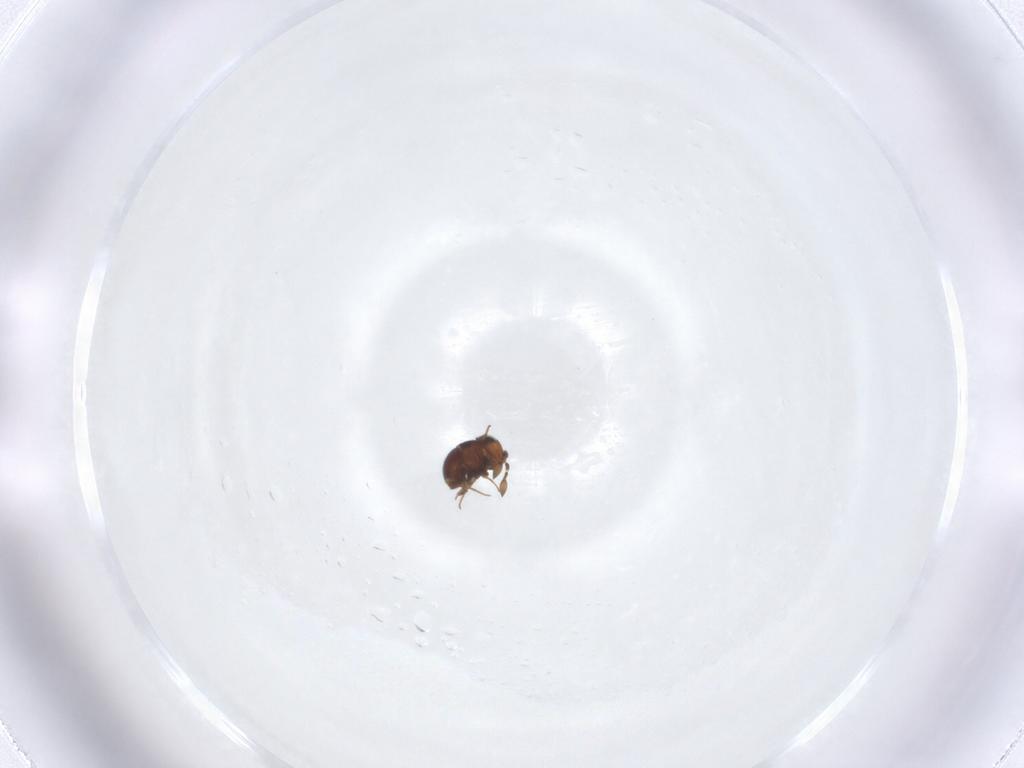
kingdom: Animalia
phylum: Arthropoda
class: Insecta
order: Hymenoptera
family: Scelionidae
